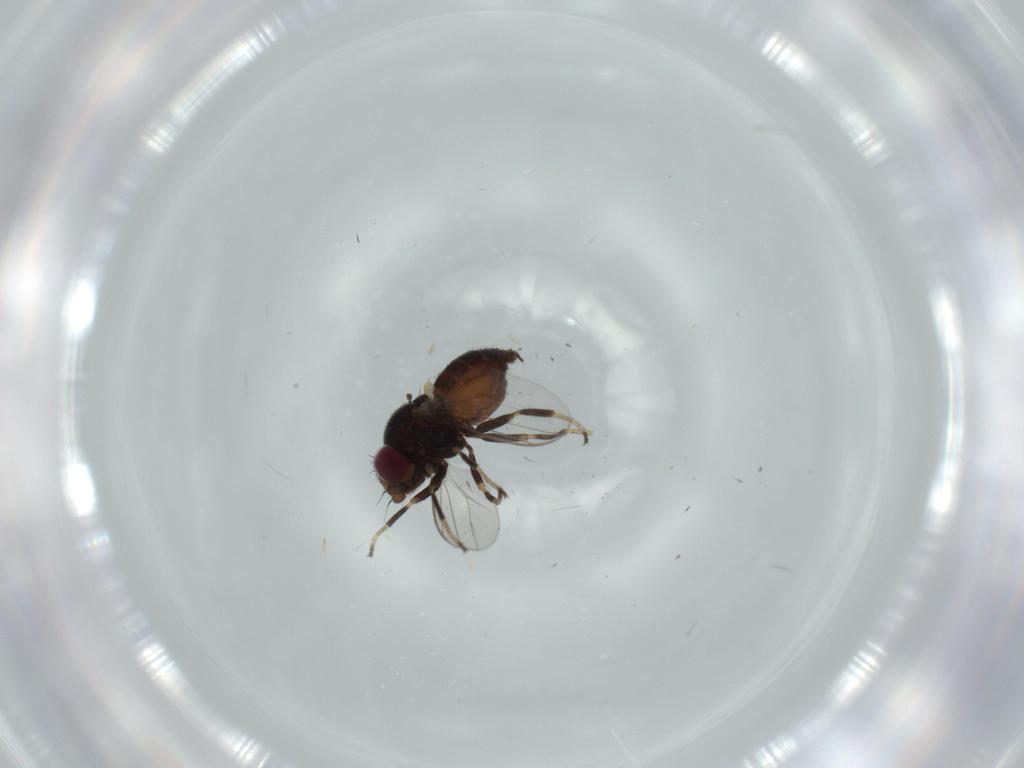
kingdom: Animalia
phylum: Arthropoda
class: Insecta
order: Diptera
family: Chloropidae
